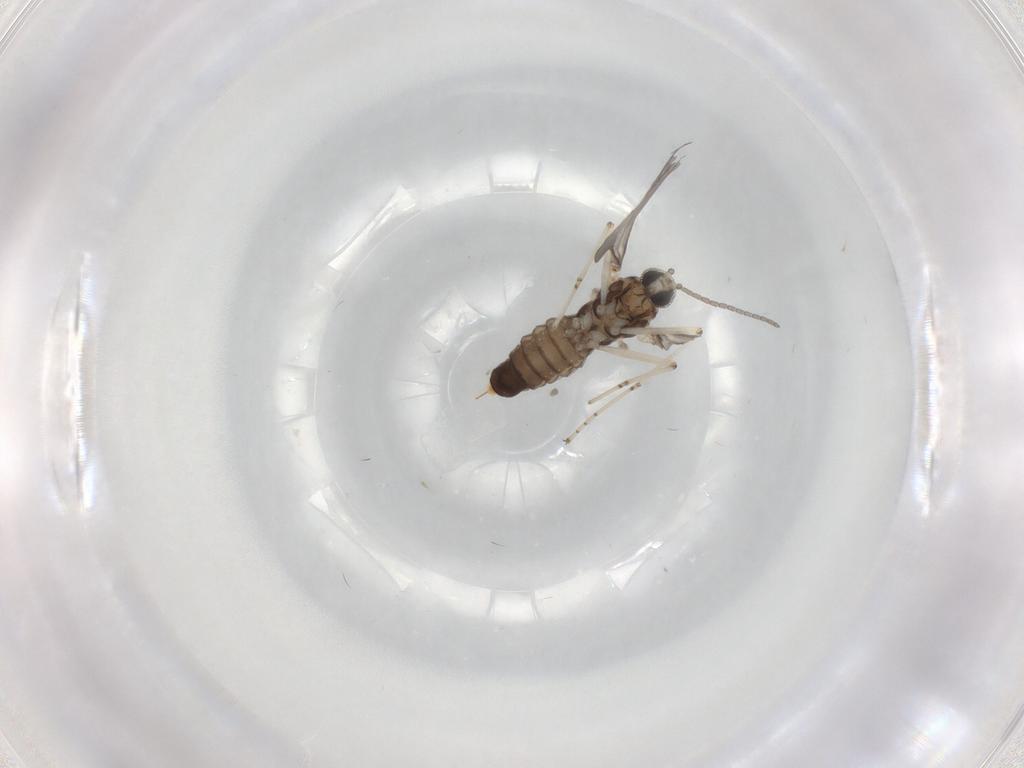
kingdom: Animalia
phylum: Arthropoda
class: Insecta
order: Diptera
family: Cecidomyiidae
